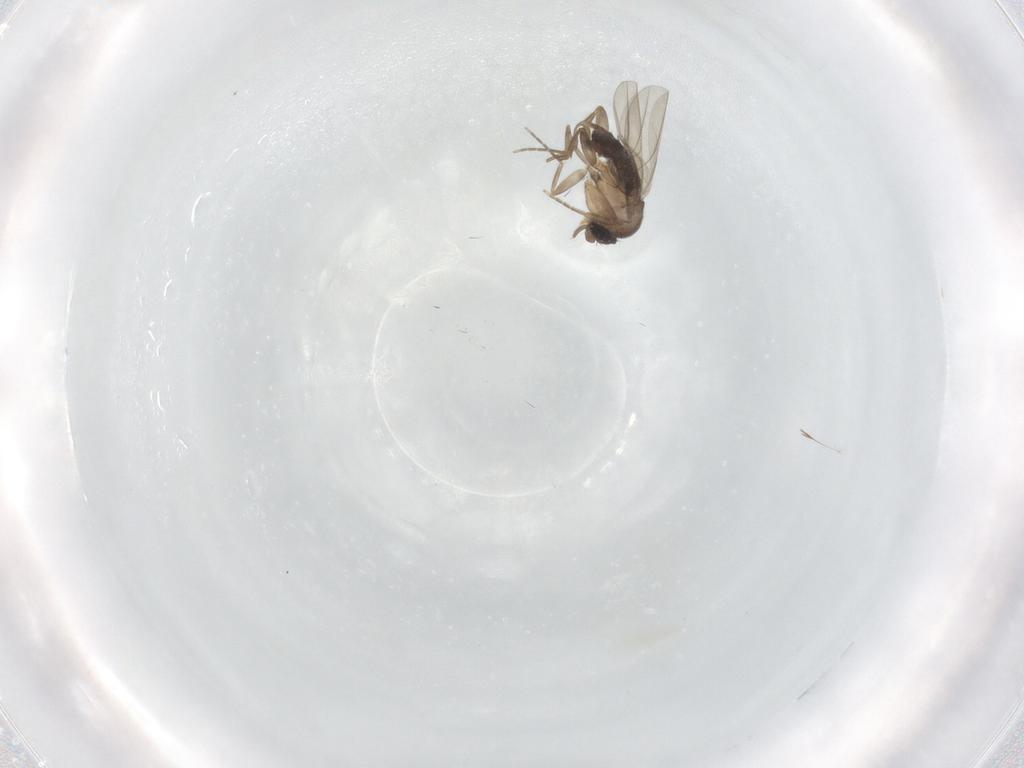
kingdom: Animalia
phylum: Arthropoda
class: Insecta
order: Diptera
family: Phoridae
